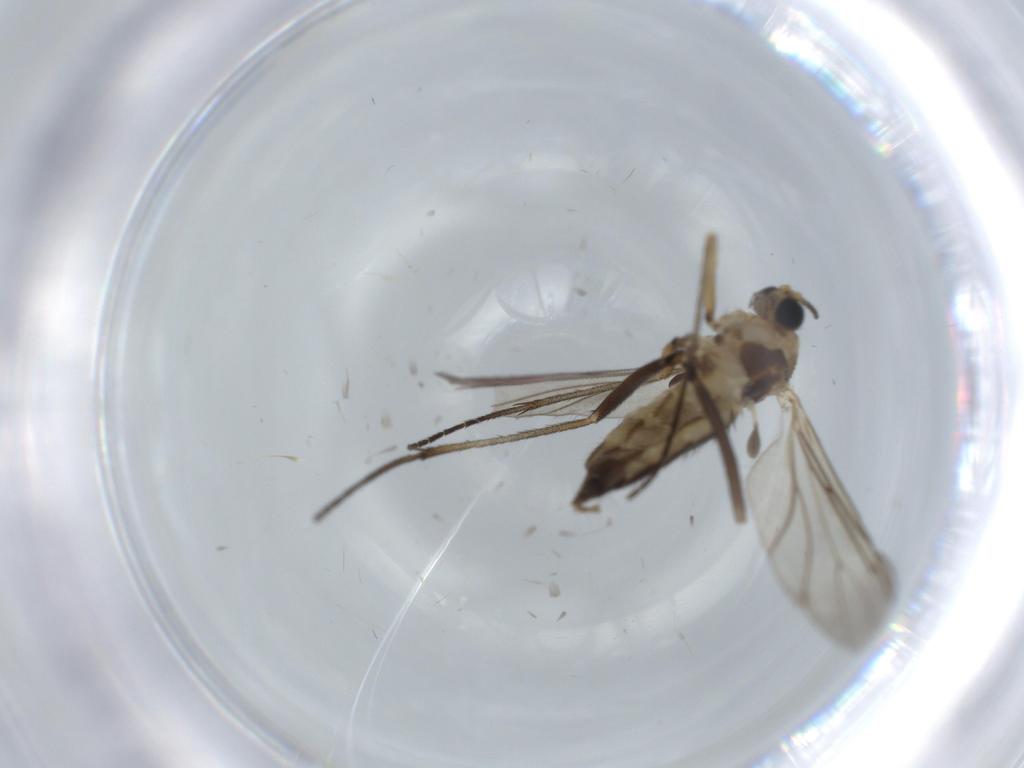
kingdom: Animalia
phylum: Arthropoda
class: Insecta
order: Diptera
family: Sciaridae
